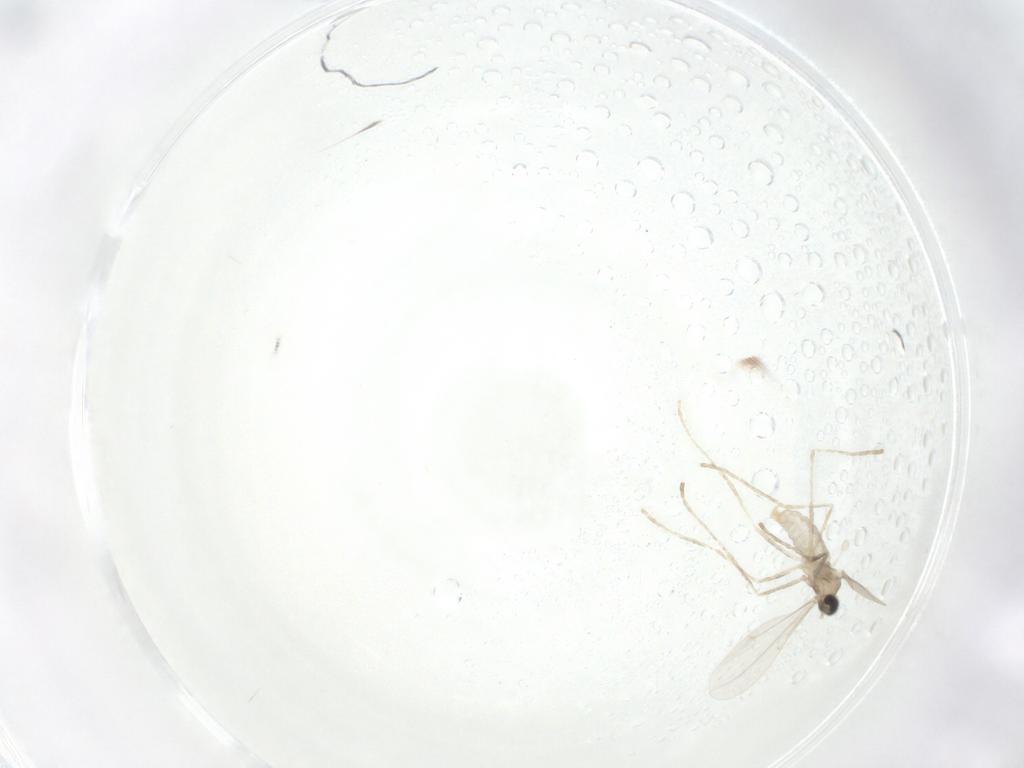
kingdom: Animalia
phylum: Arthropoda
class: Insecta
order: Diptera
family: Cecidomyiidae
